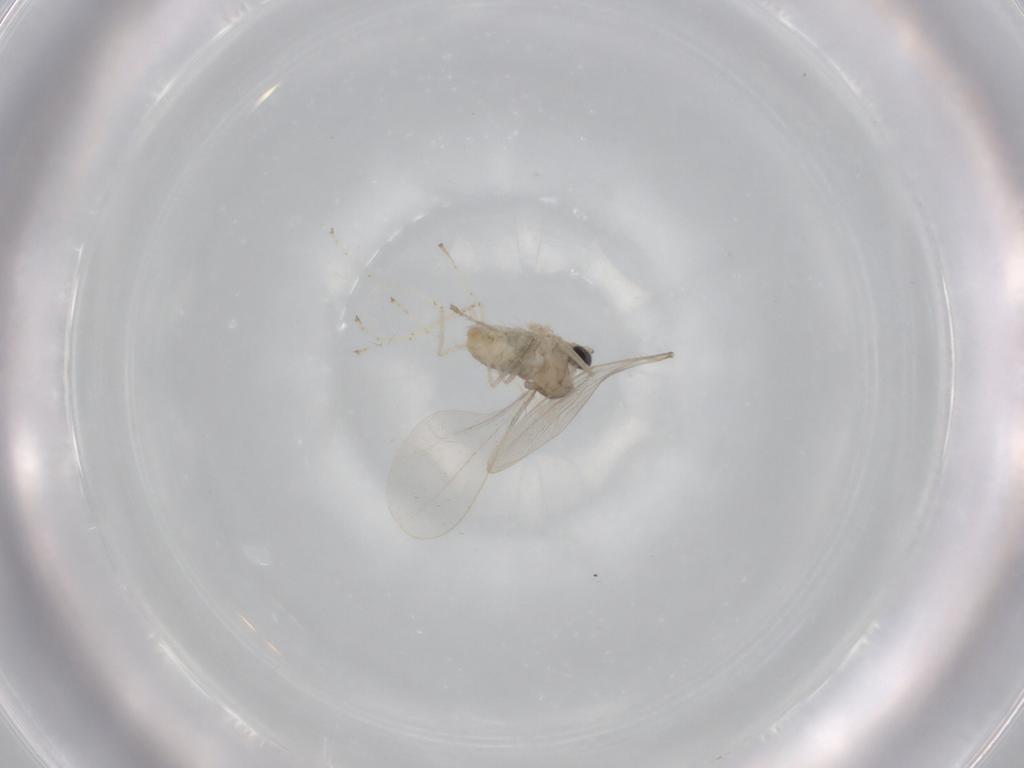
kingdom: Animalia
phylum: Arthropoda
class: Insecta
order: Diptera
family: Cecidomyiidae
